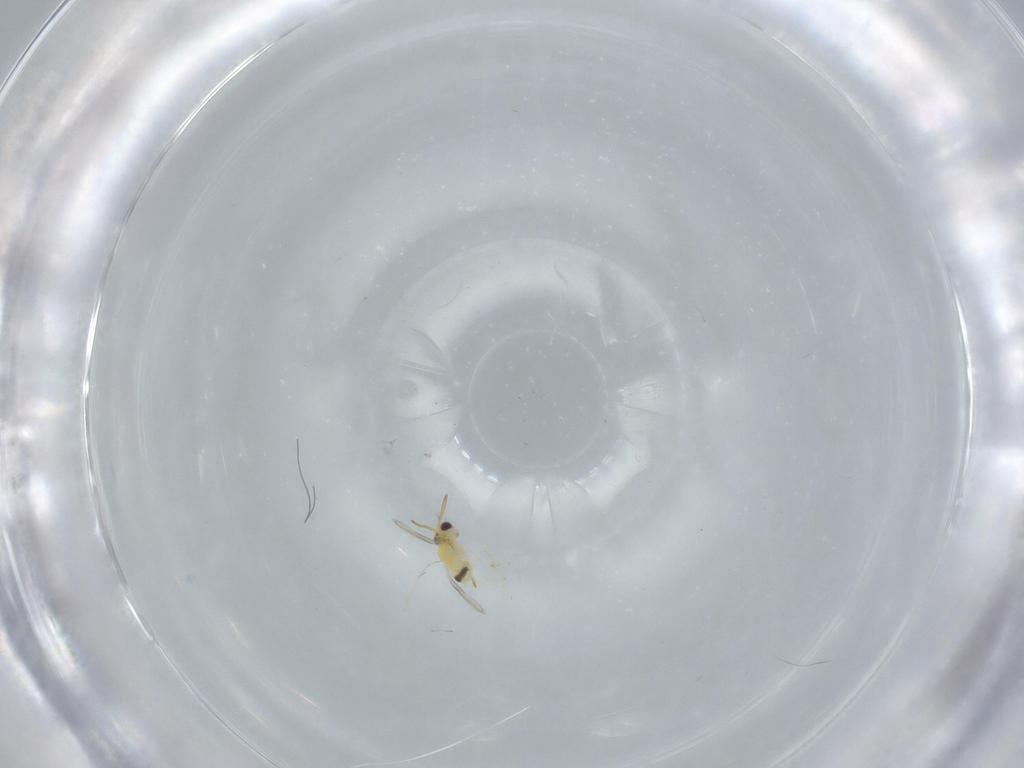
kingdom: Animalia
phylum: Arthropoda
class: Insecta
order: Hymenoptera
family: Aphelinidae
